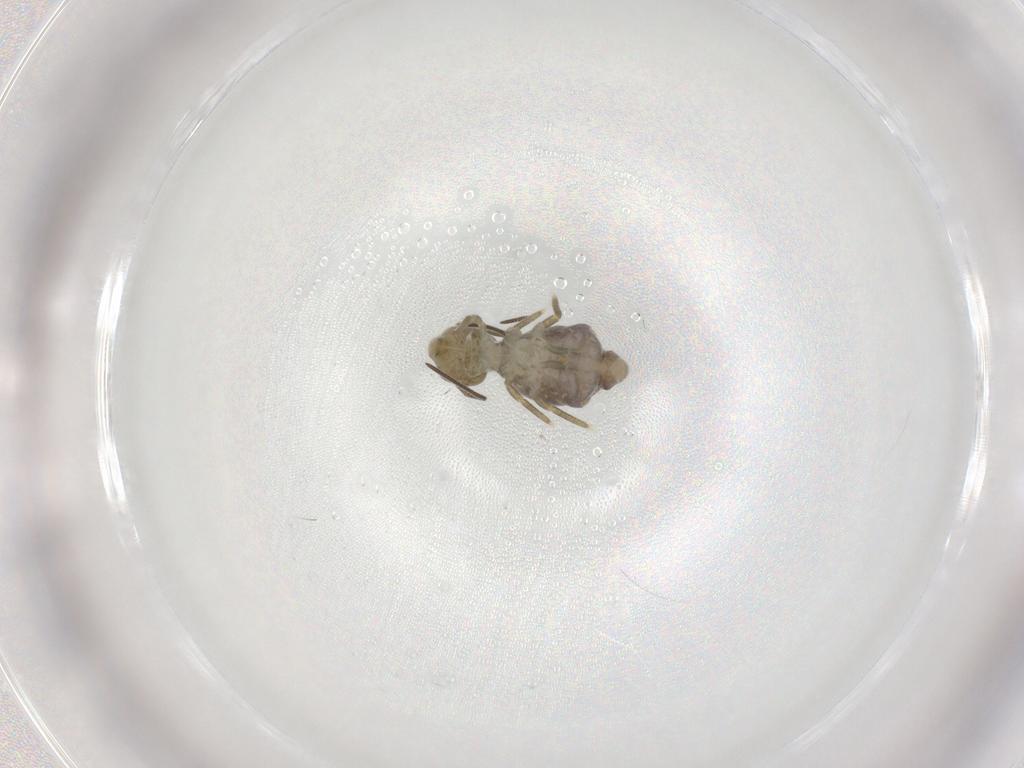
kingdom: Animalia
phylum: Arthropoda
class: Collembola
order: Symphypleona
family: Sminthuridae
